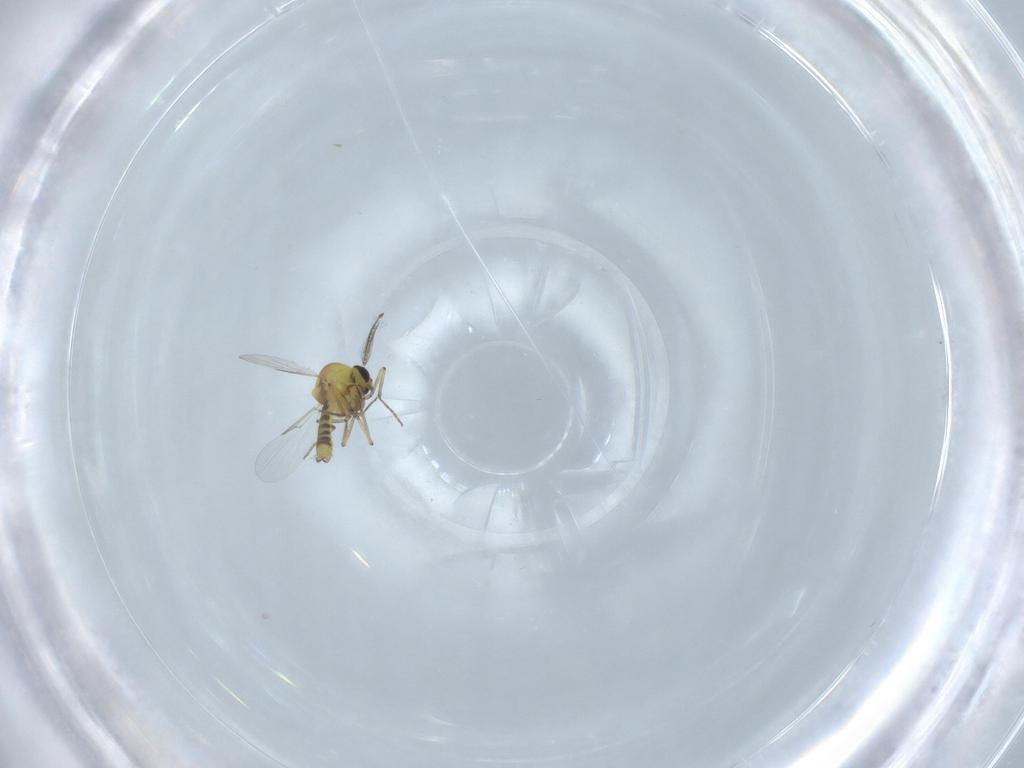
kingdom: Animalia
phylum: Arthropoda
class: Insecta
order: Diptera
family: Ceratopogonidae
